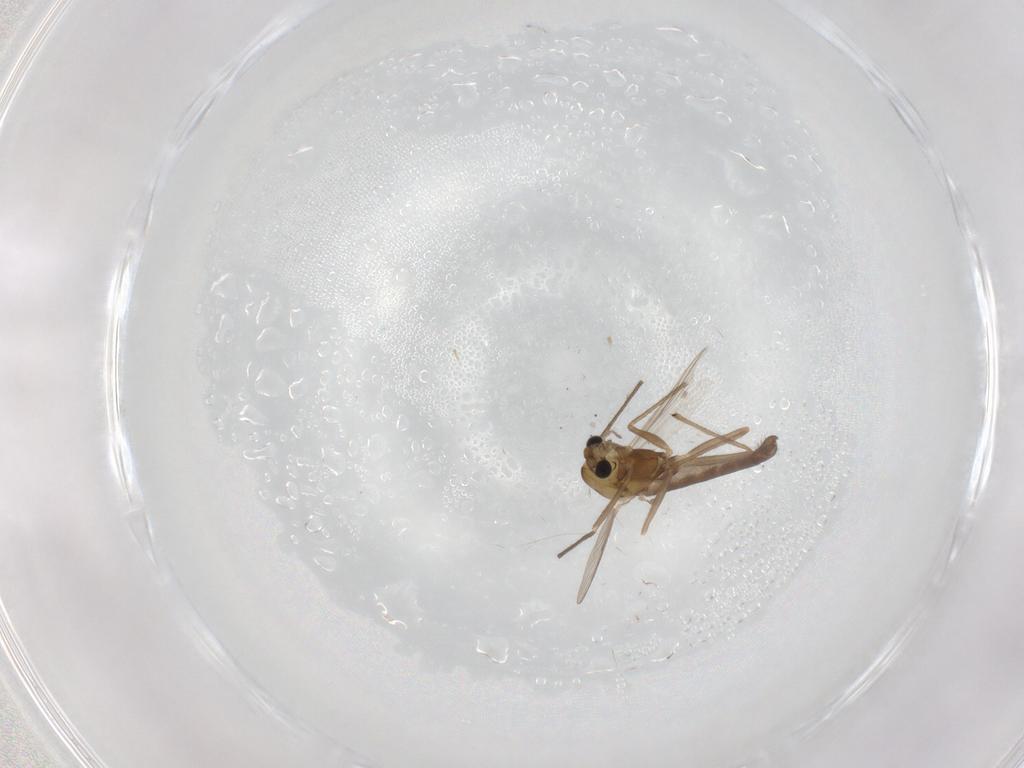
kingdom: Animalia
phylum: Arthropoda
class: Insecta
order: Diptera
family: Chironomidae
